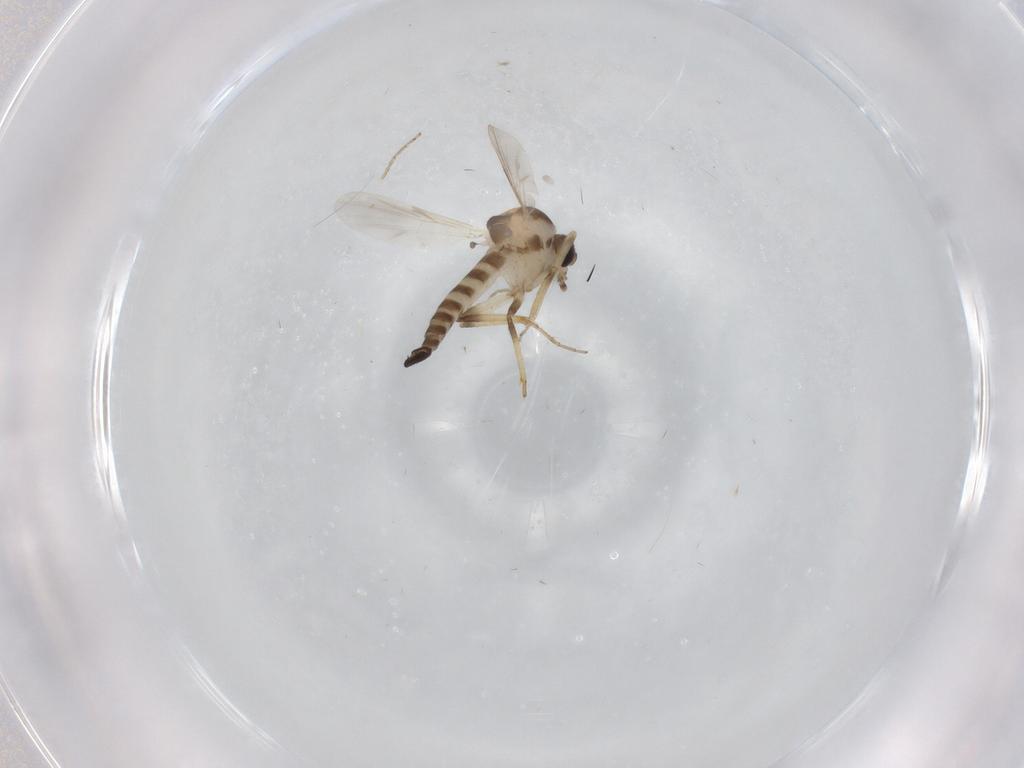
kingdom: Animalia
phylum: Arthropoda
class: Insecta
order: Diptera
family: Ceratopogonidae
